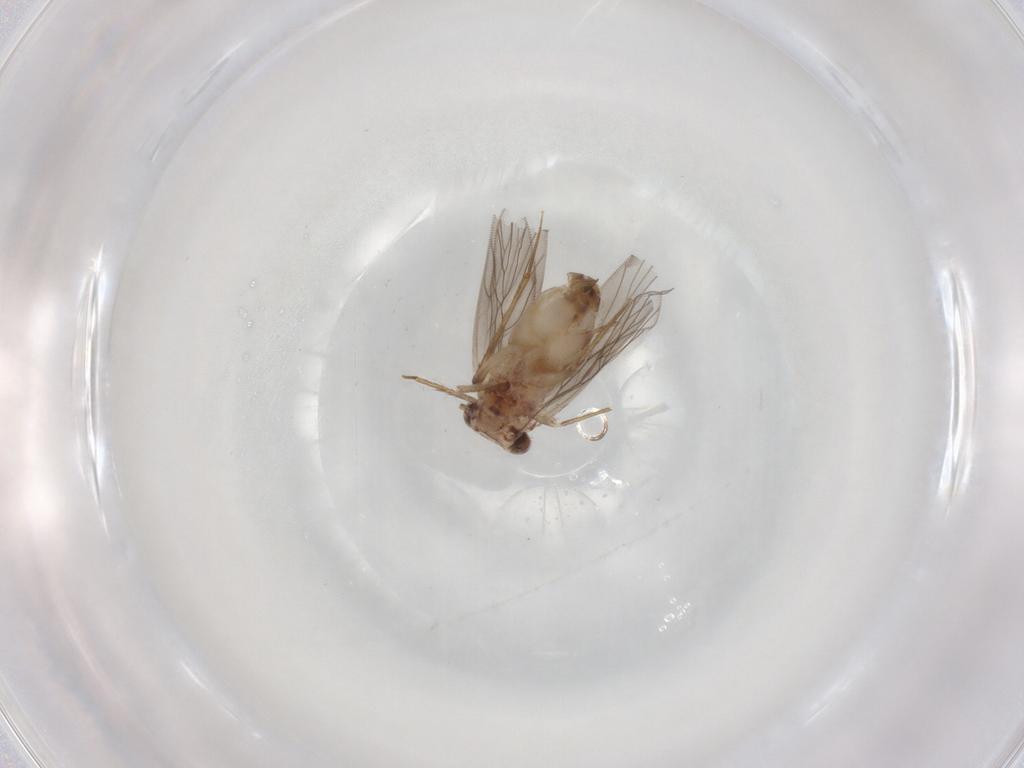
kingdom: Animalia
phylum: Arthropoda
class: Insecta
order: Psocodea
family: Lepidopsocidae
